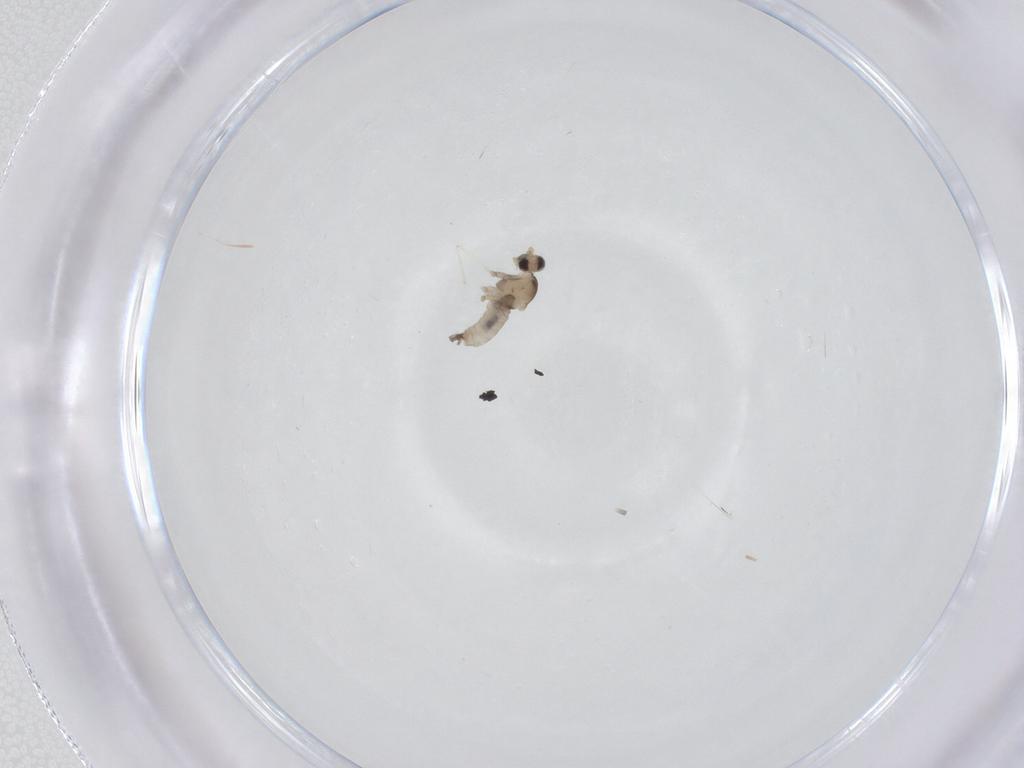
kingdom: Animalia
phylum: Arthropoda
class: Insecta
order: Diptera
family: Cecidomyiidae
